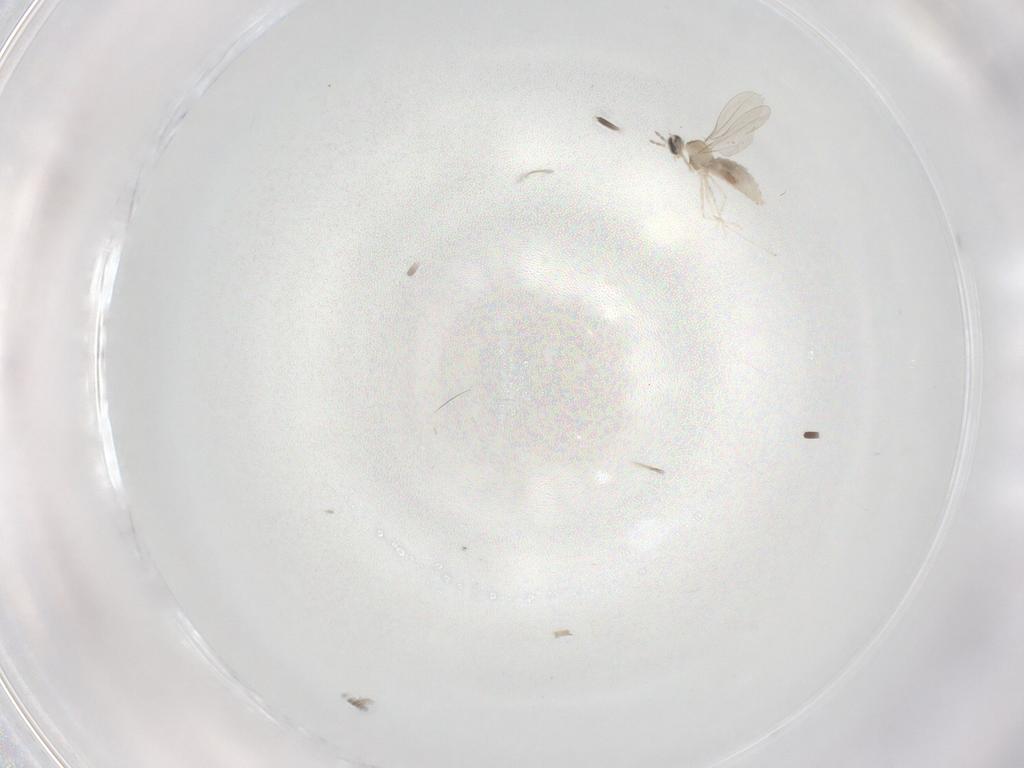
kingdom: Animalia
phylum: Arthropoda
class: Insecta
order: Diptera
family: Cecidomyiidae
